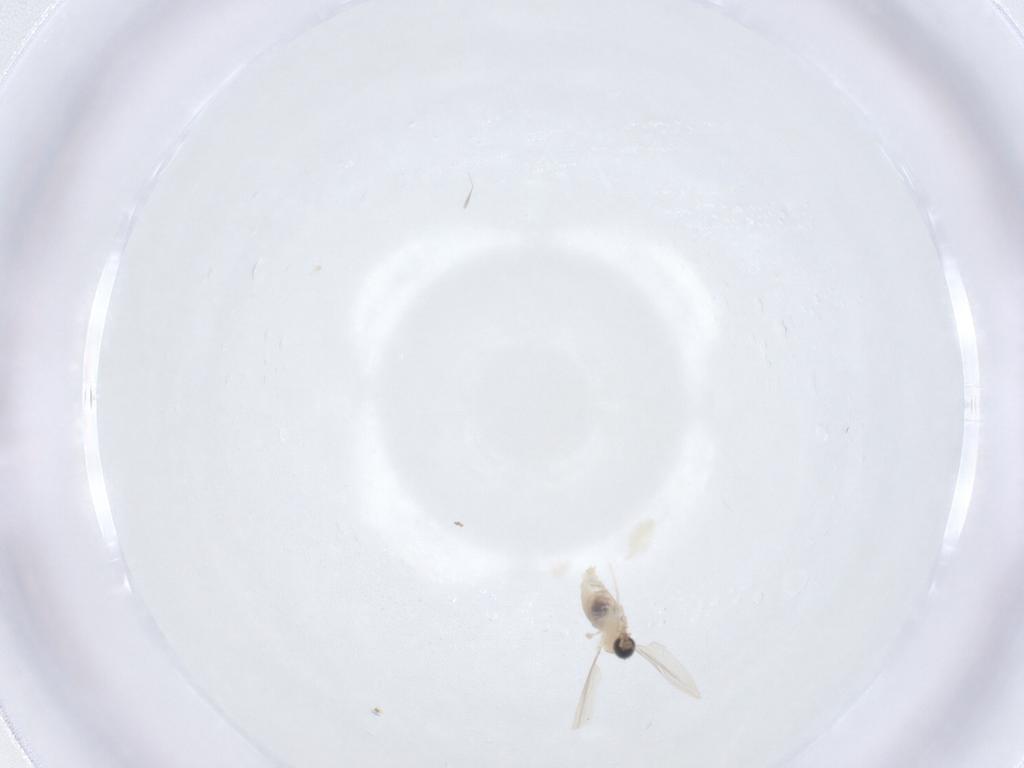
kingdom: Animalia
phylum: Arthropoda
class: Insecta
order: Diptera
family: Cecidomyiidae
